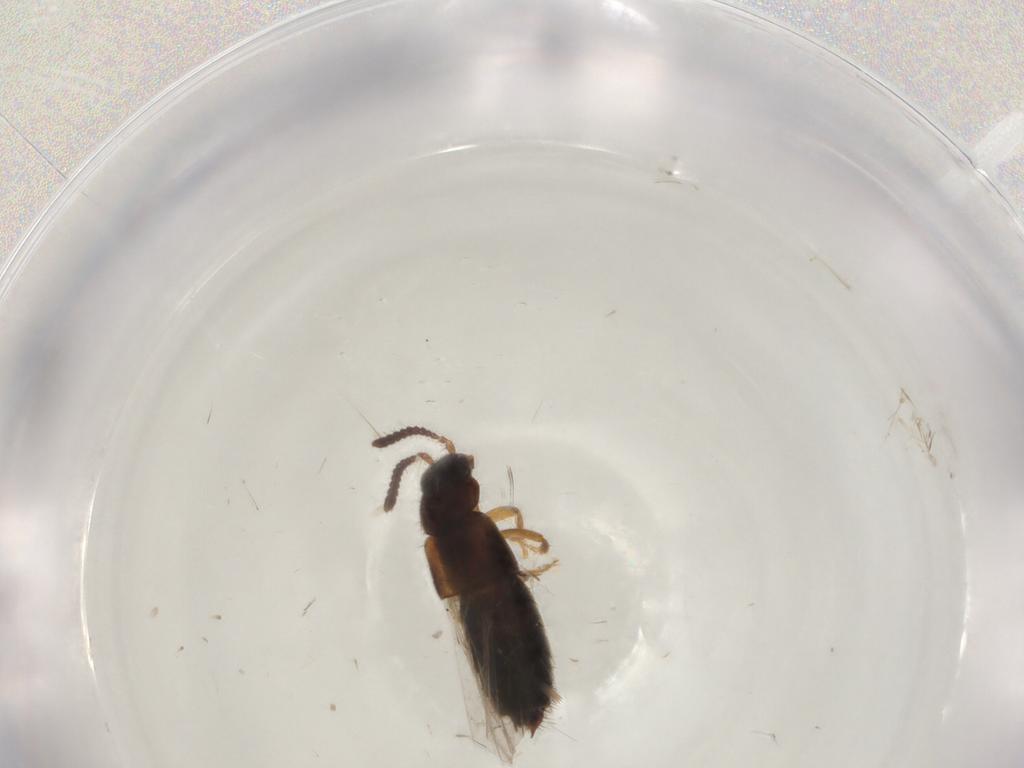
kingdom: Animalia
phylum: Arthropoda
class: Insecta
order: Coleoptera
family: Staphylinidae
